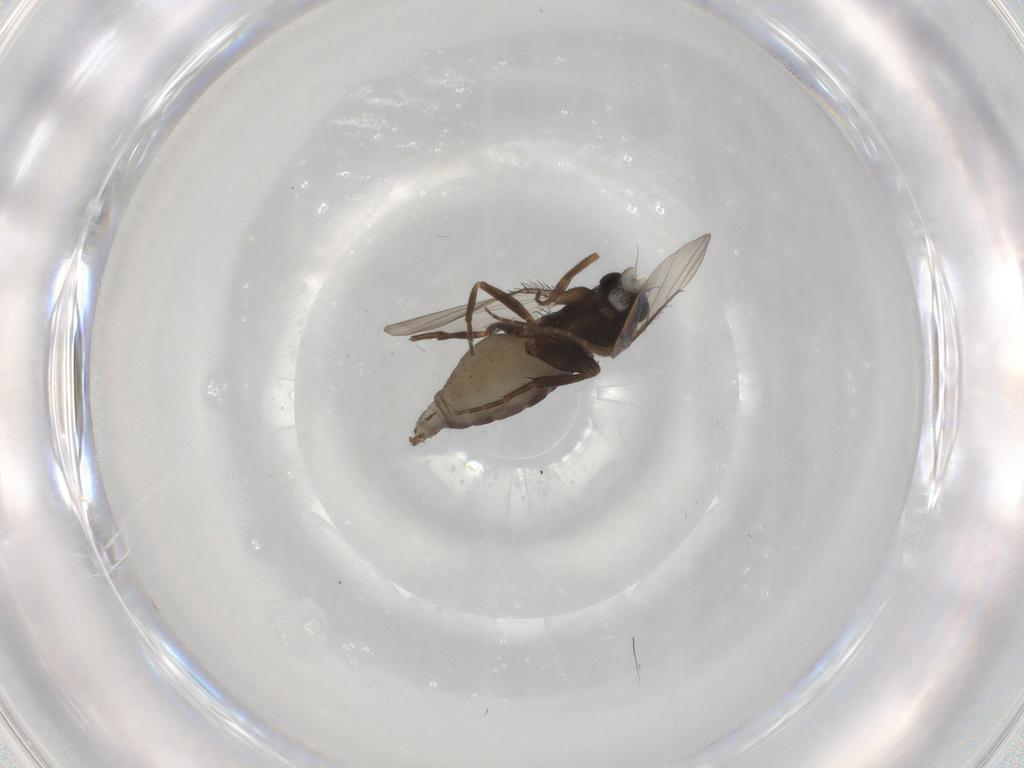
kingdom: Animalia
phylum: Arthropoda
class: Insecta
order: Diptera
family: Phoridae
